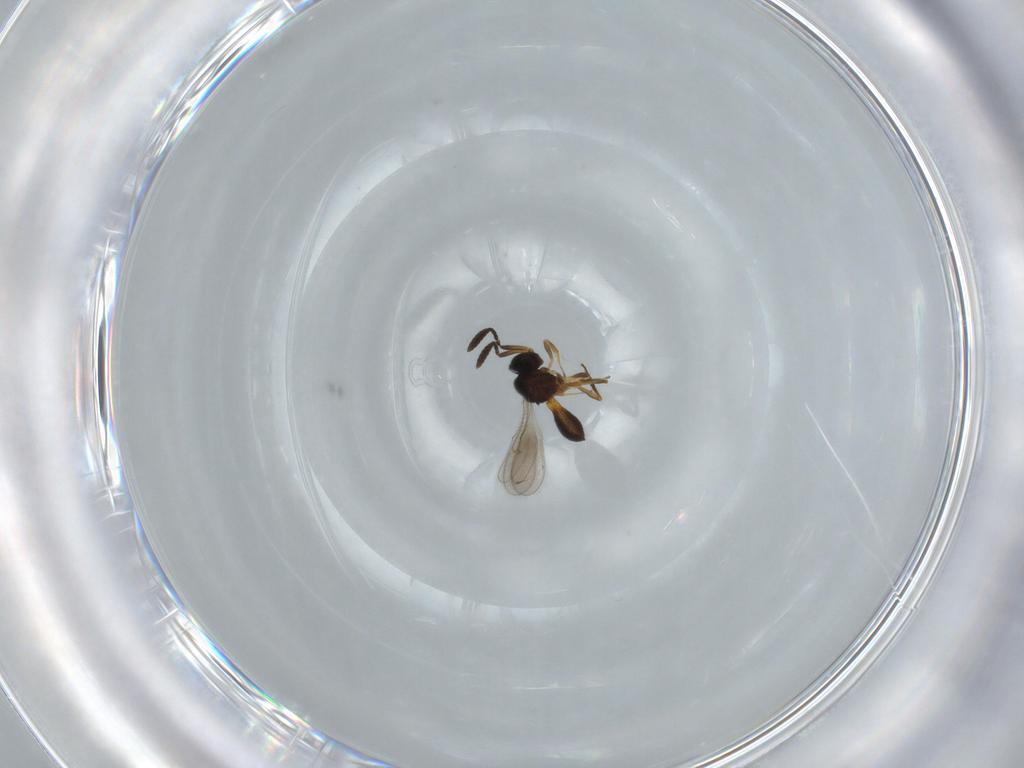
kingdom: Animalia
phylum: Arthropoda
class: Insecta
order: Hymenoptera
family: Scelionidae
